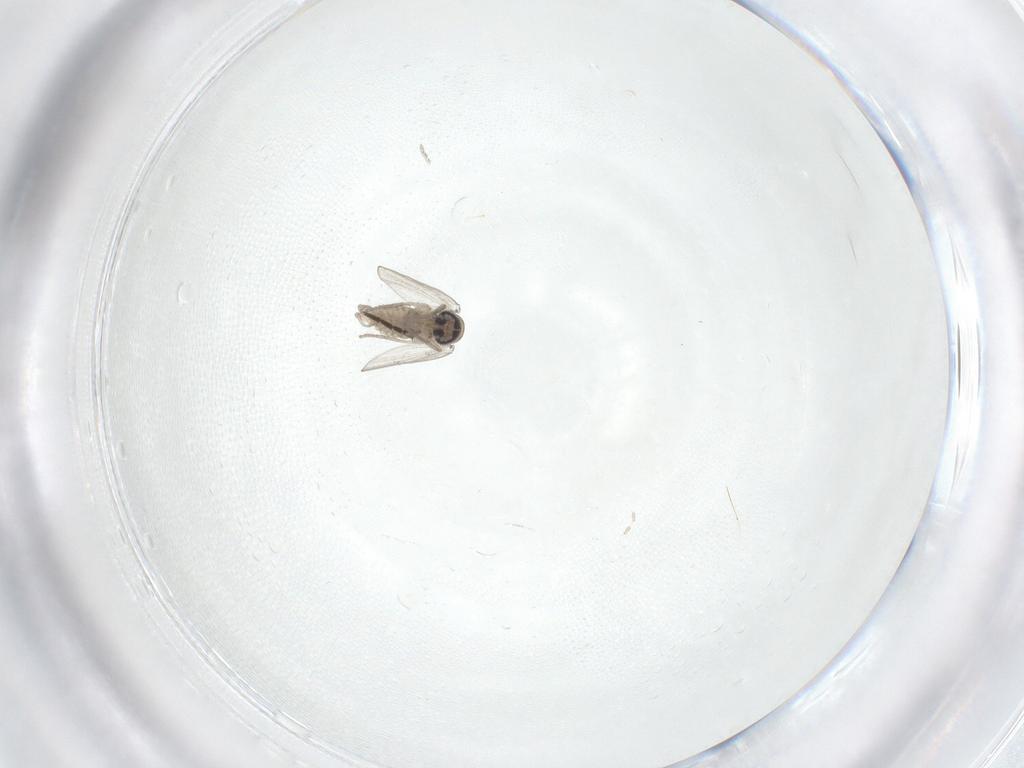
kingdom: Animalia
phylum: Arthropoda
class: Insecta
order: Diptera
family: Psychodidae
